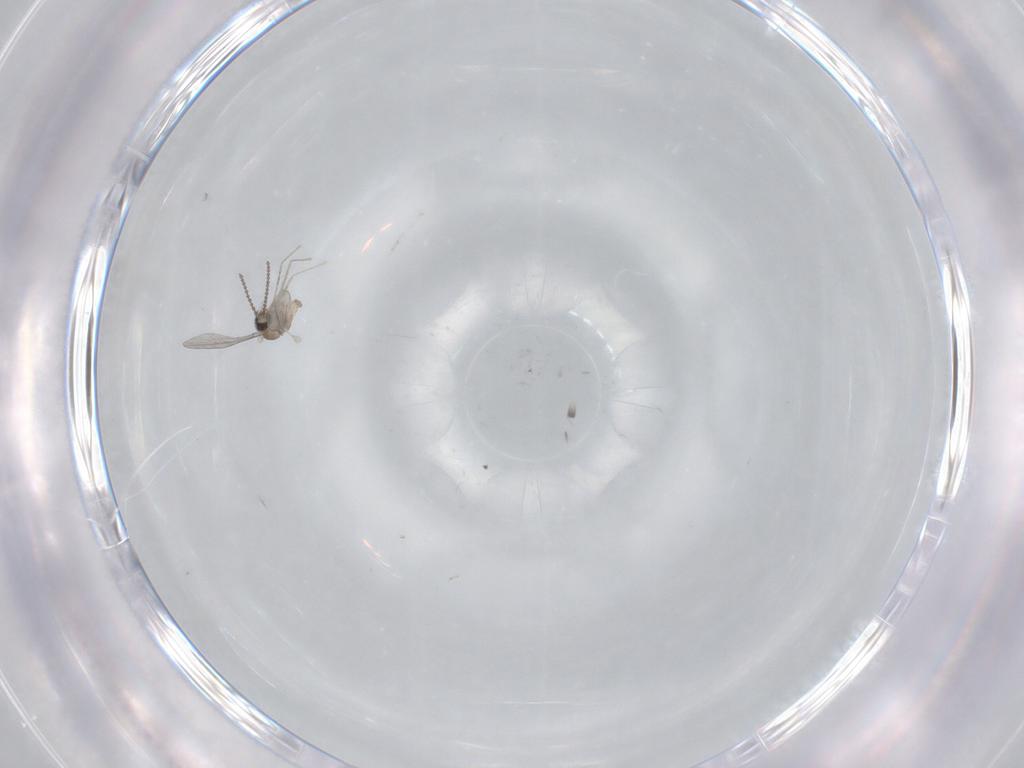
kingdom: Animalia
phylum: Arthropoda
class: Insecta
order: Diptera
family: Cecidomyiidae
